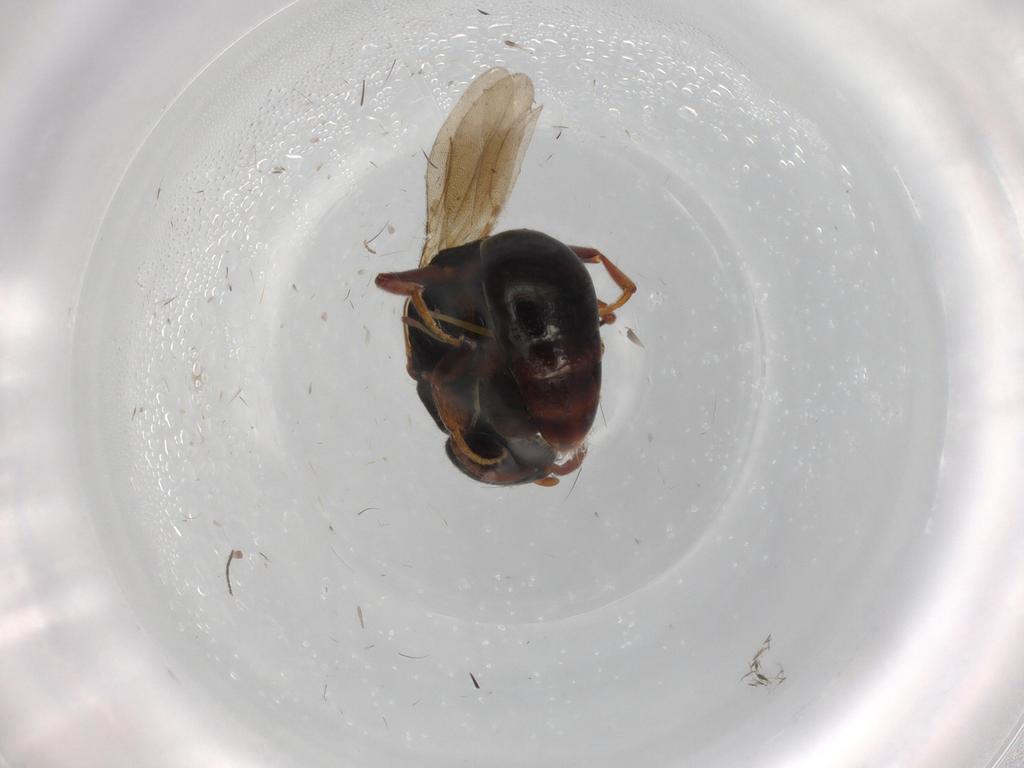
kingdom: Animalia
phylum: Arthropoda
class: Insecta
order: Hymenoptera
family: Bethylidae
